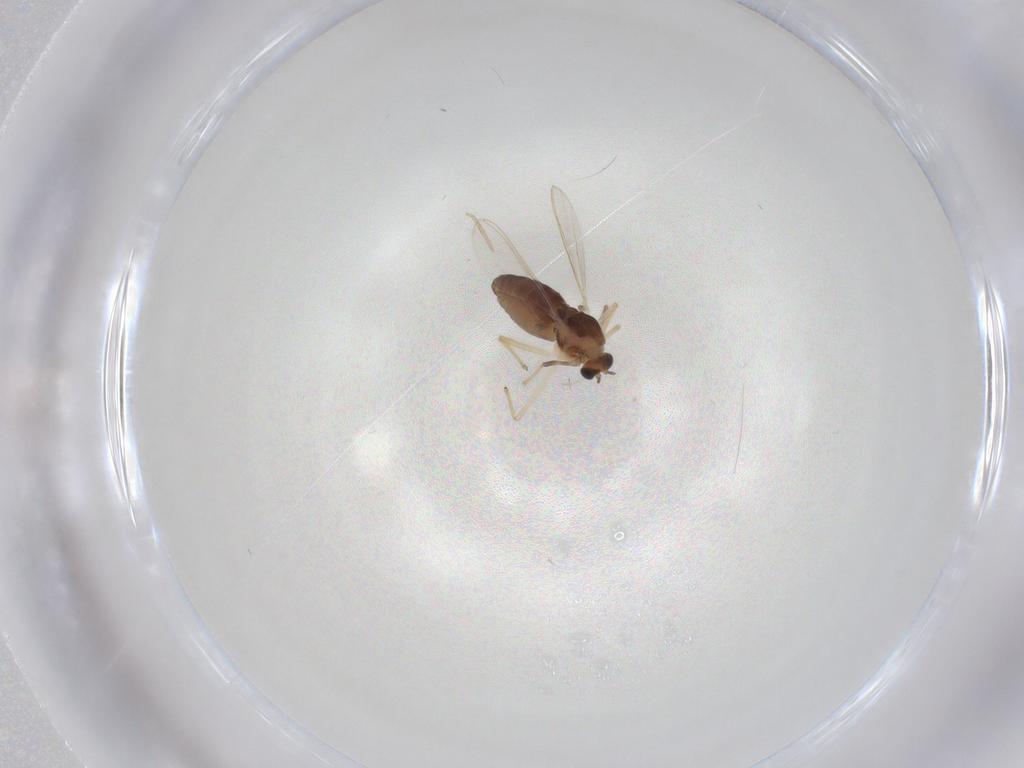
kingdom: Animalia
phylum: Arthropoda
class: Insecta
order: Diptera
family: Chironomidae
